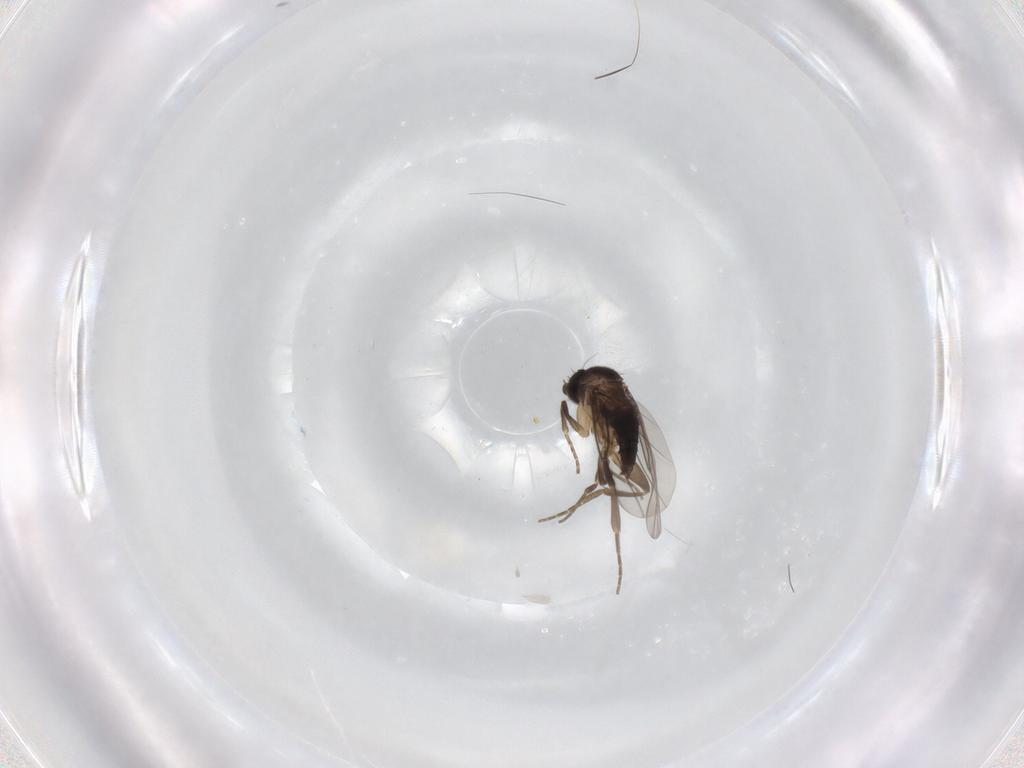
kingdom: Animalia
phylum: Arthropoda
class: Insecta
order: Diptera
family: Phoridae
